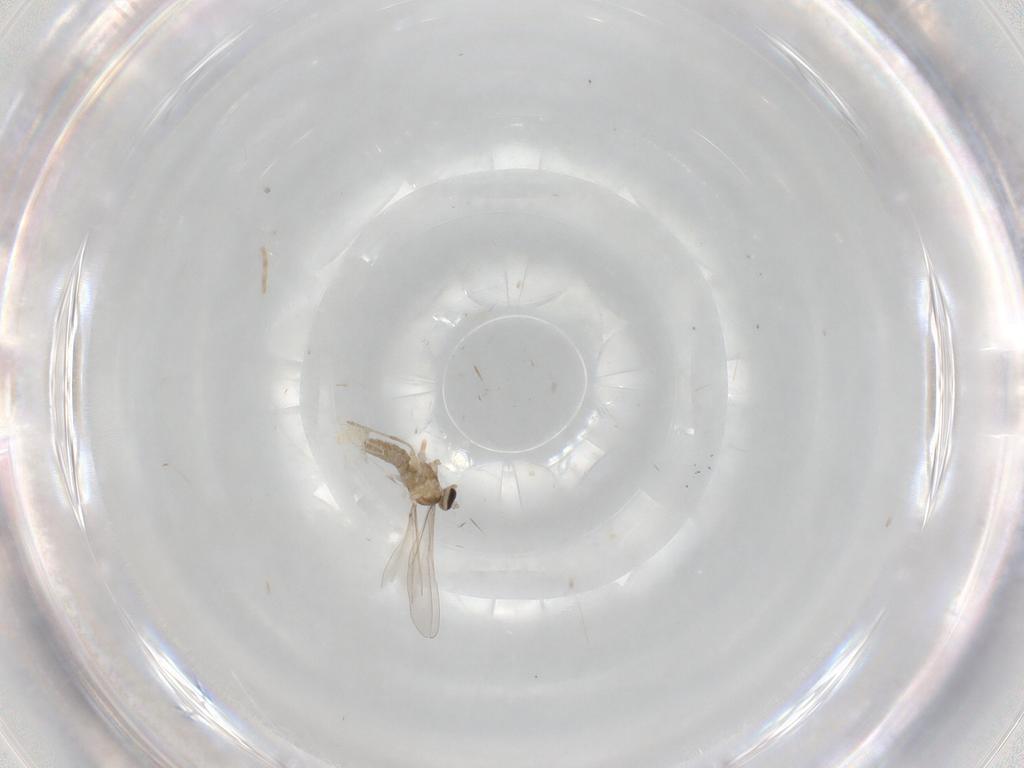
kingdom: Animalia
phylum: Arthropoda
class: Insecta
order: Diptera
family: Cecidomyiidae
